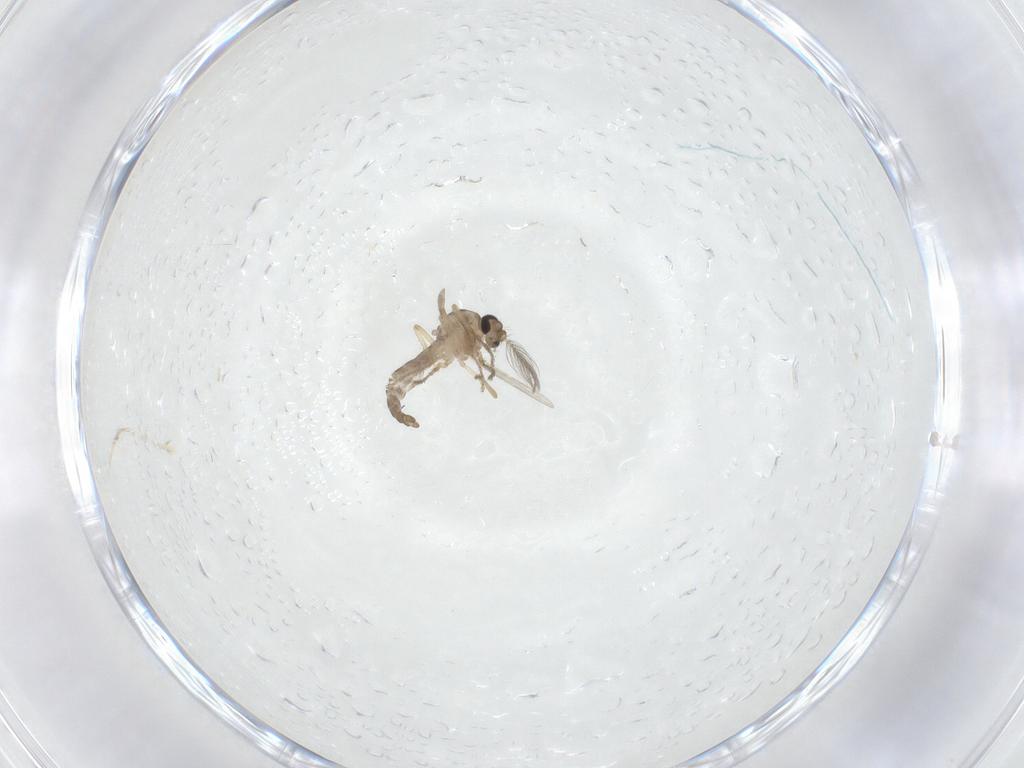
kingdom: Animalia
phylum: Arthropoda
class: Insecta
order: Diptera
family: Ceratopogonidae
